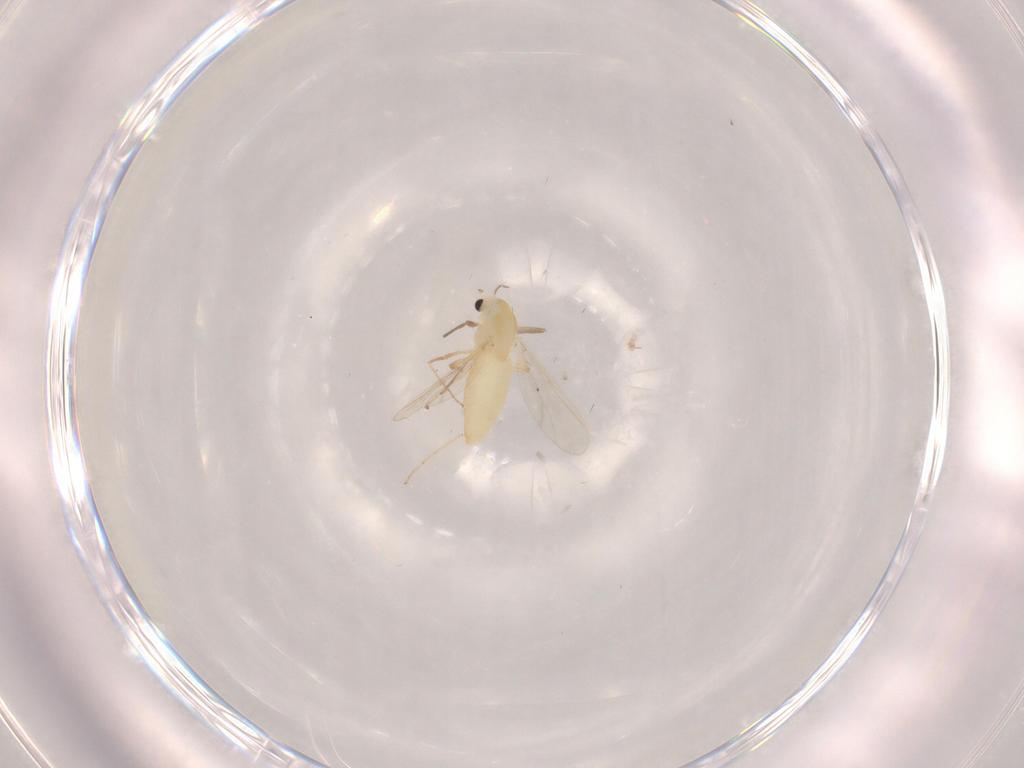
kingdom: Animalia
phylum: Arthropoda
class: Insecta
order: Diptera
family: Chironomidae
